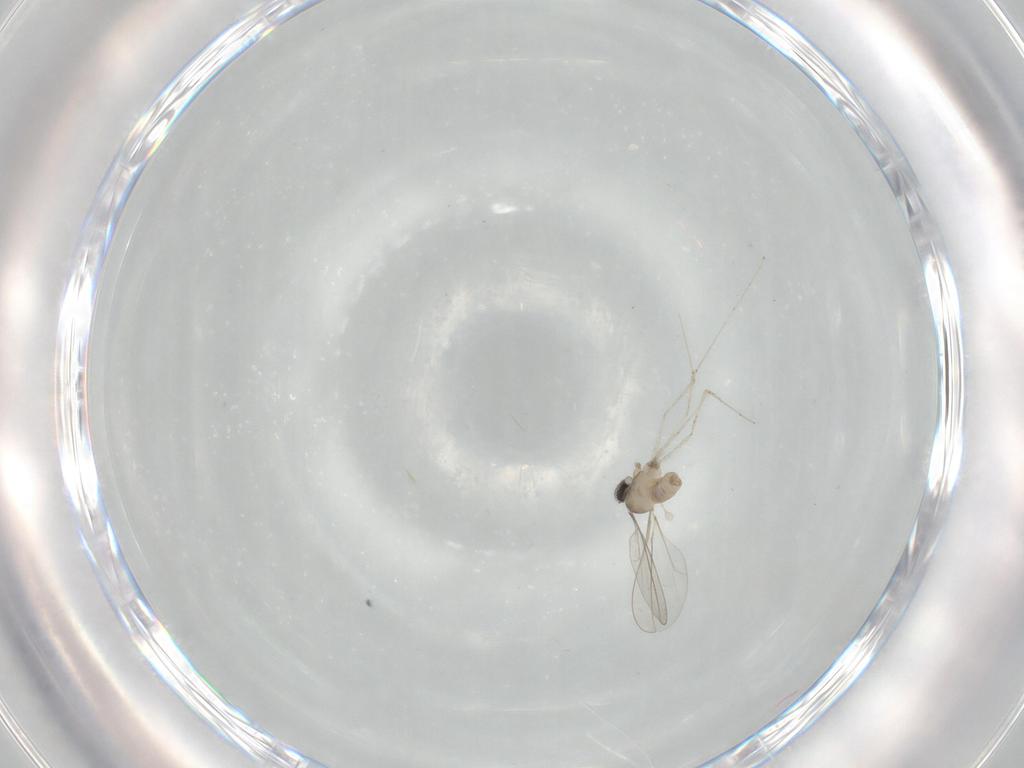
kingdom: Animalia
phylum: Arthropoda
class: Insecta
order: Diptera
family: Cecidomyiidae
